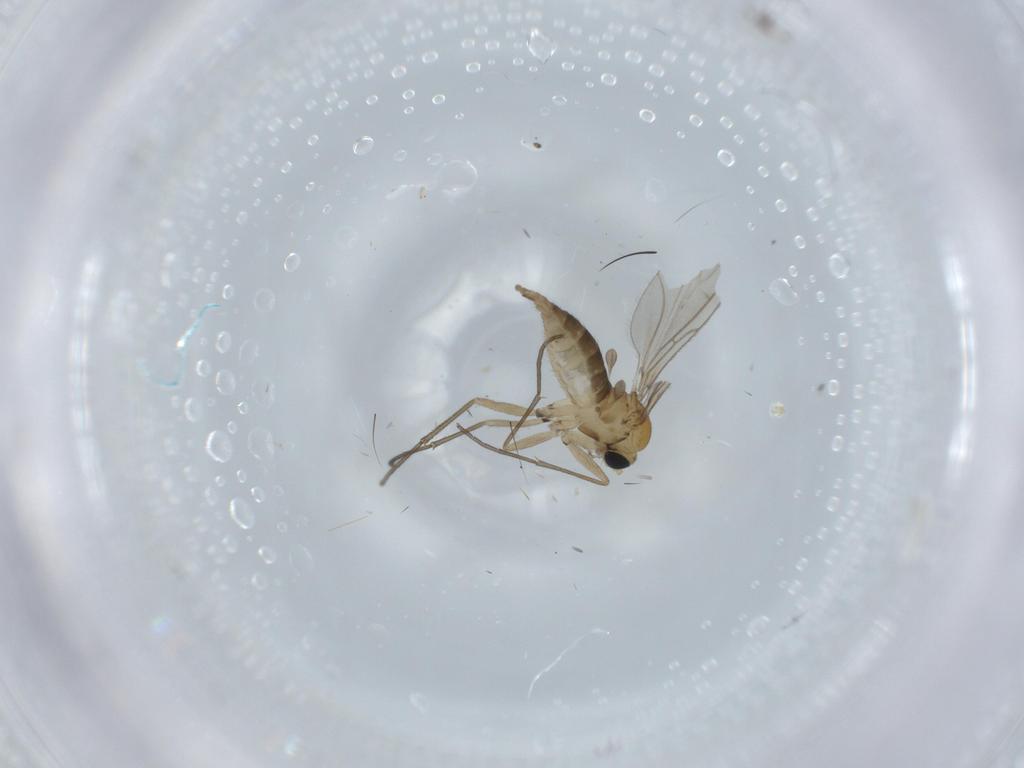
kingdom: Animalia
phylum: Arthropoda
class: Insecta
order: Diptera
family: Sciaridae
